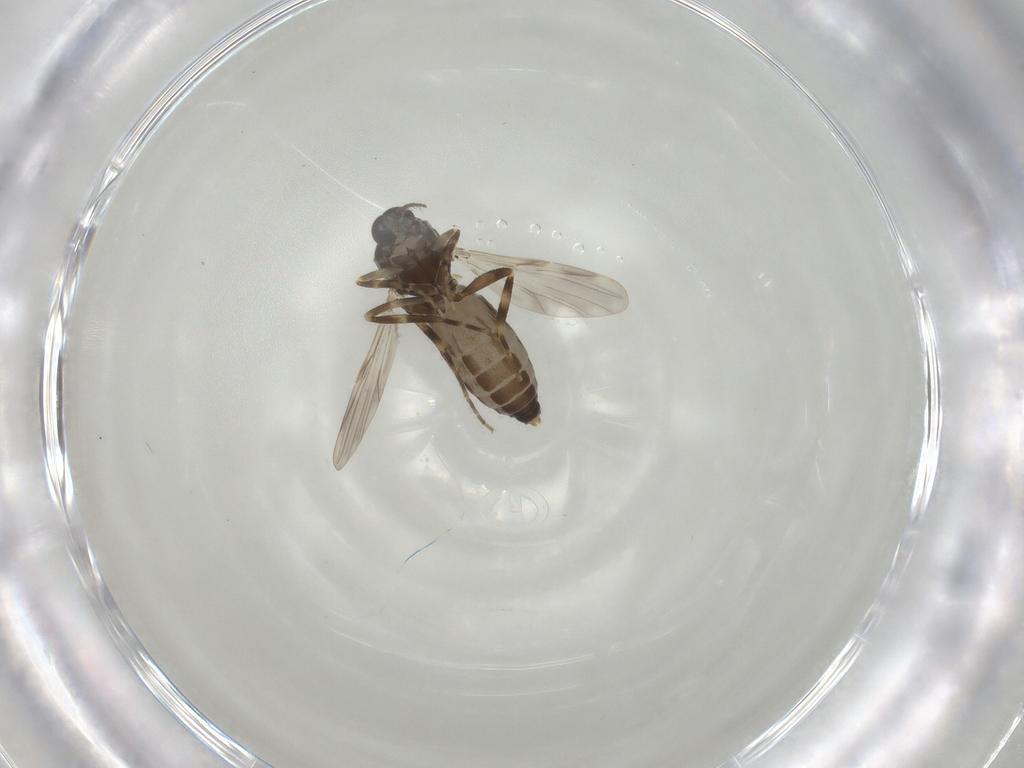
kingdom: Animalia
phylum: Arthropoda
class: Insecta
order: Diptera
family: Ceratopogonidae
